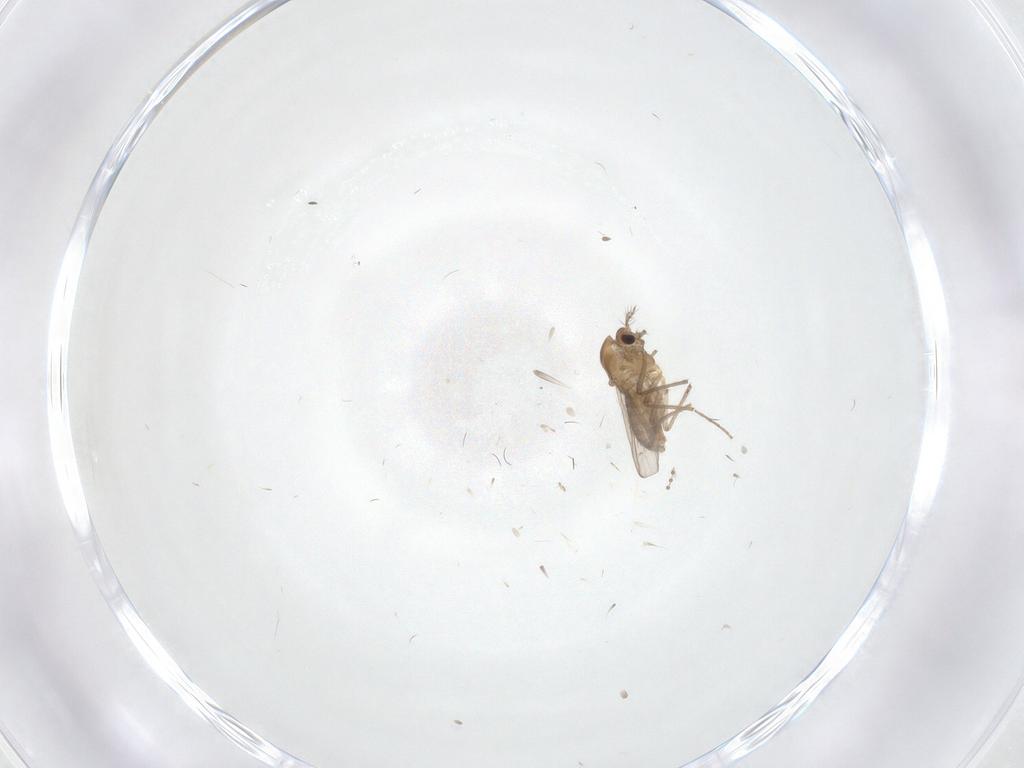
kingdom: Animalia
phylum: Arthropoda
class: Insecta
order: Diptera
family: Chironomidae
